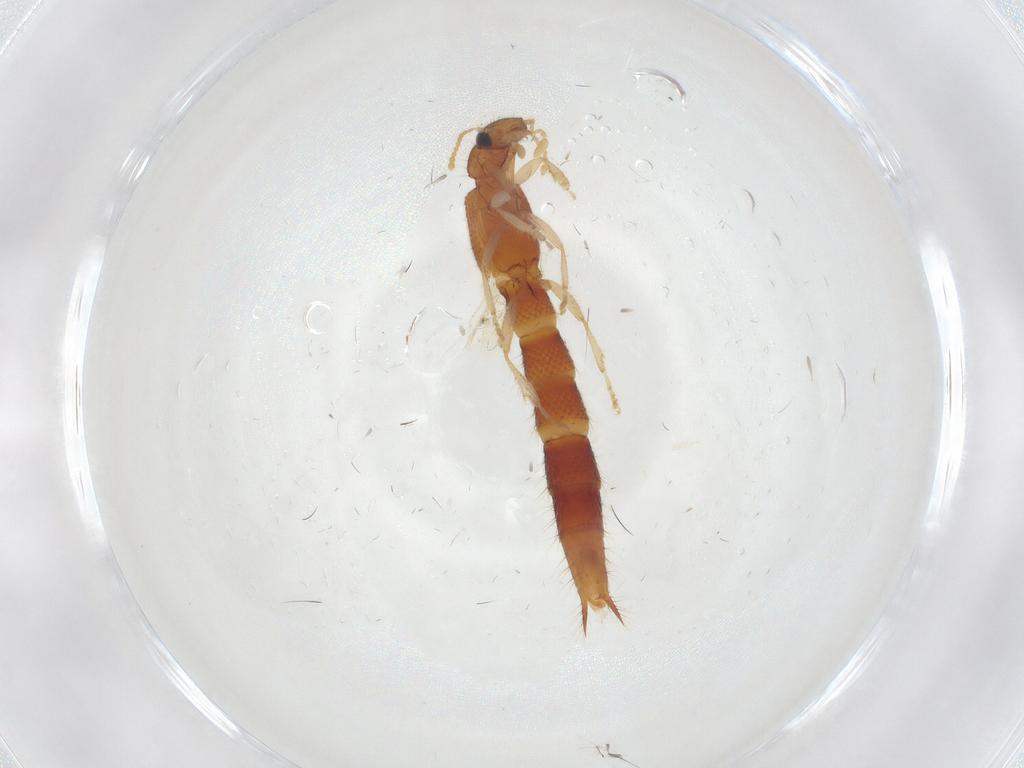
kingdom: Animalia
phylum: Arthropoda
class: Insecta
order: Coleoptera
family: Staphylinidae
